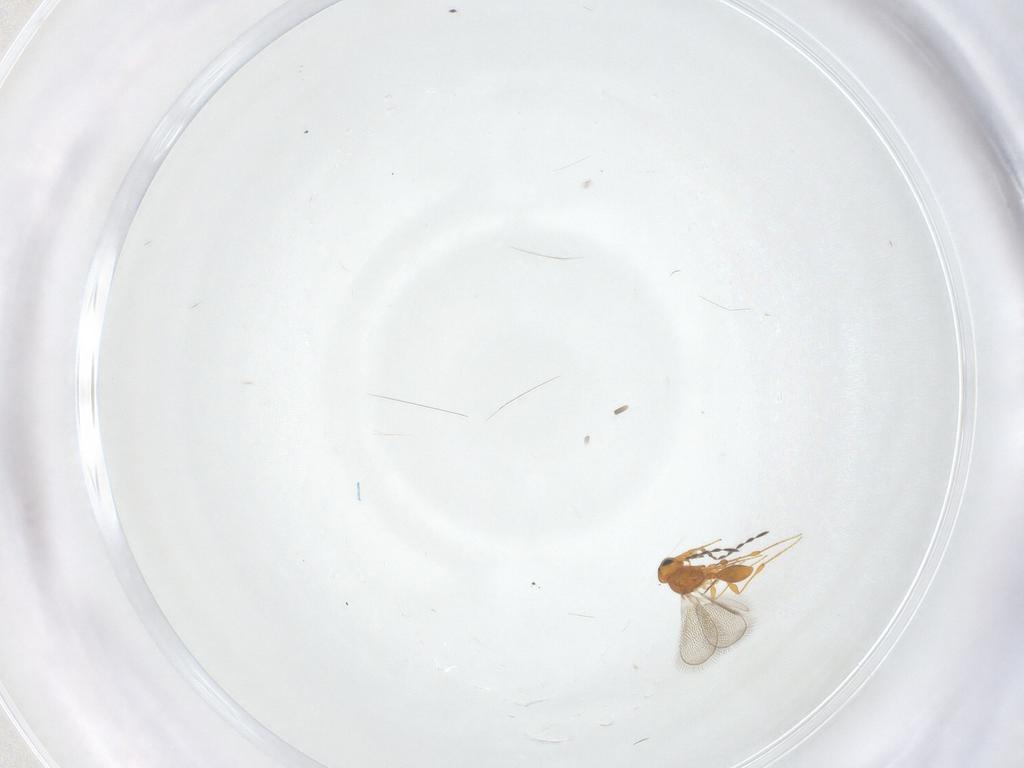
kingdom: Animalia
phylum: Arthropoda
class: Insecta
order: Hymenoptera
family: Platygastridae
